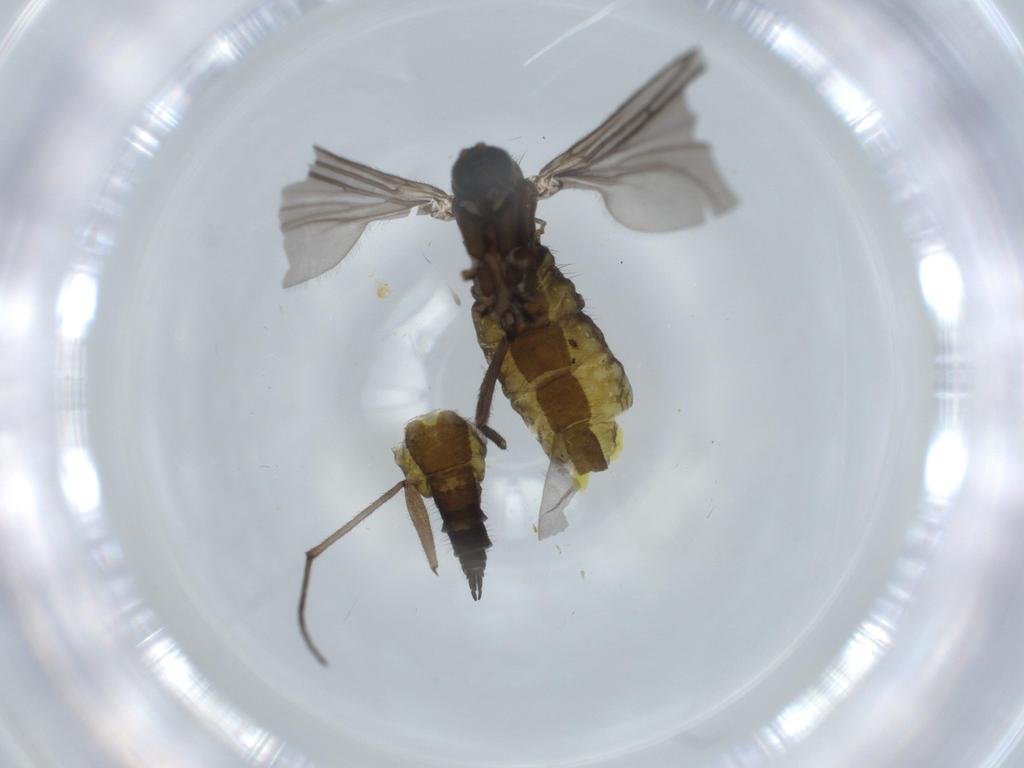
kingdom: Animalia
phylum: Arthropoda
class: Insecta
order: Diptera
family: Sciaridae
